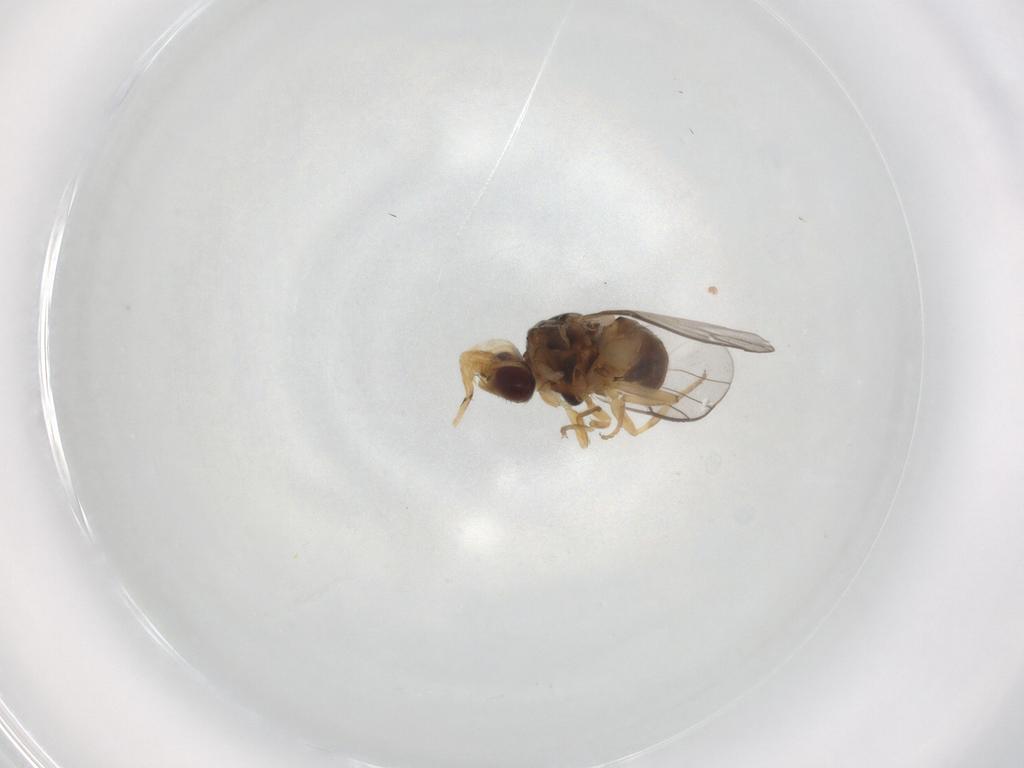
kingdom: Animalia
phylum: Arthropoda
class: Insecta
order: Diptera
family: Chloropidae
